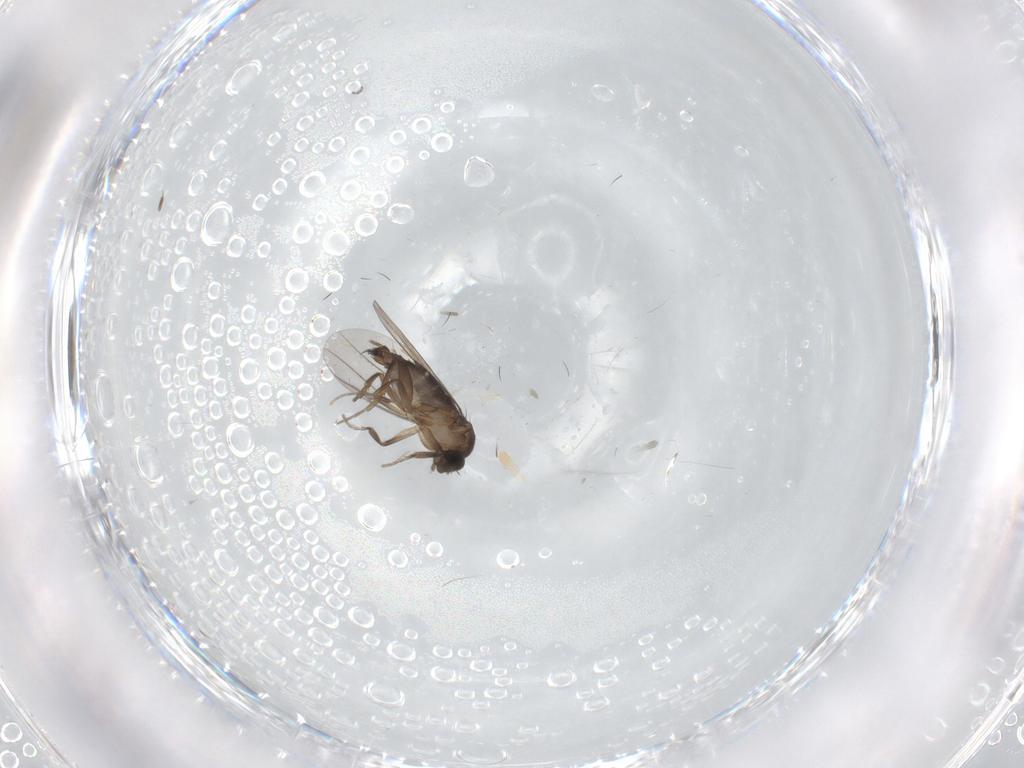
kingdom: Animalia
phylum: Arthropoda
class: Insecta
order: Diptera
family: Phoridae
